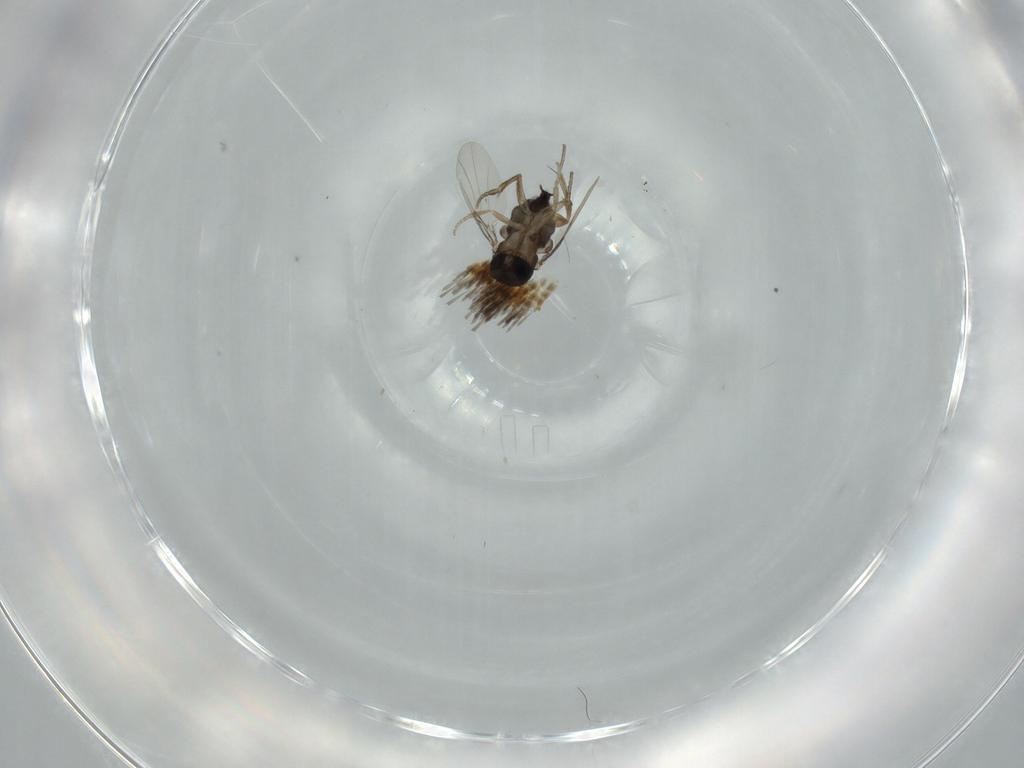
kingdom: Animalia
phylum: Arthropoda
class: Insecta
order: Diptera
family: Phoridae
